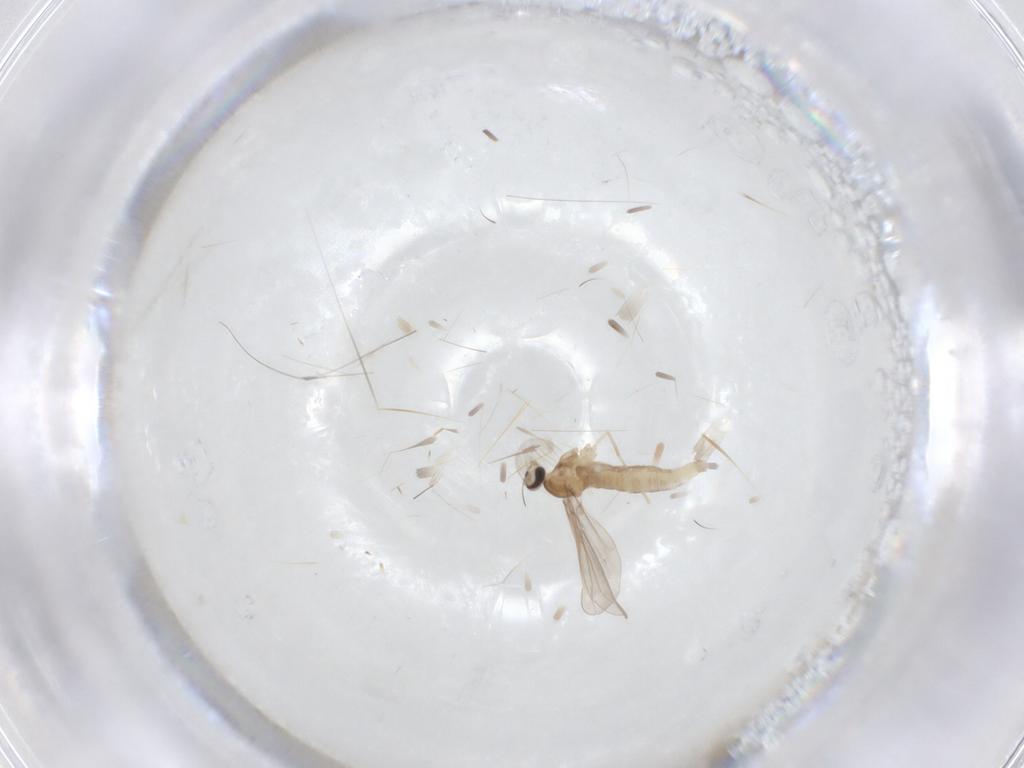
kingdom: Animalia
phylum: Arthropoda
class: Insecta
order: Diptera
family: Cecidomyiidae
